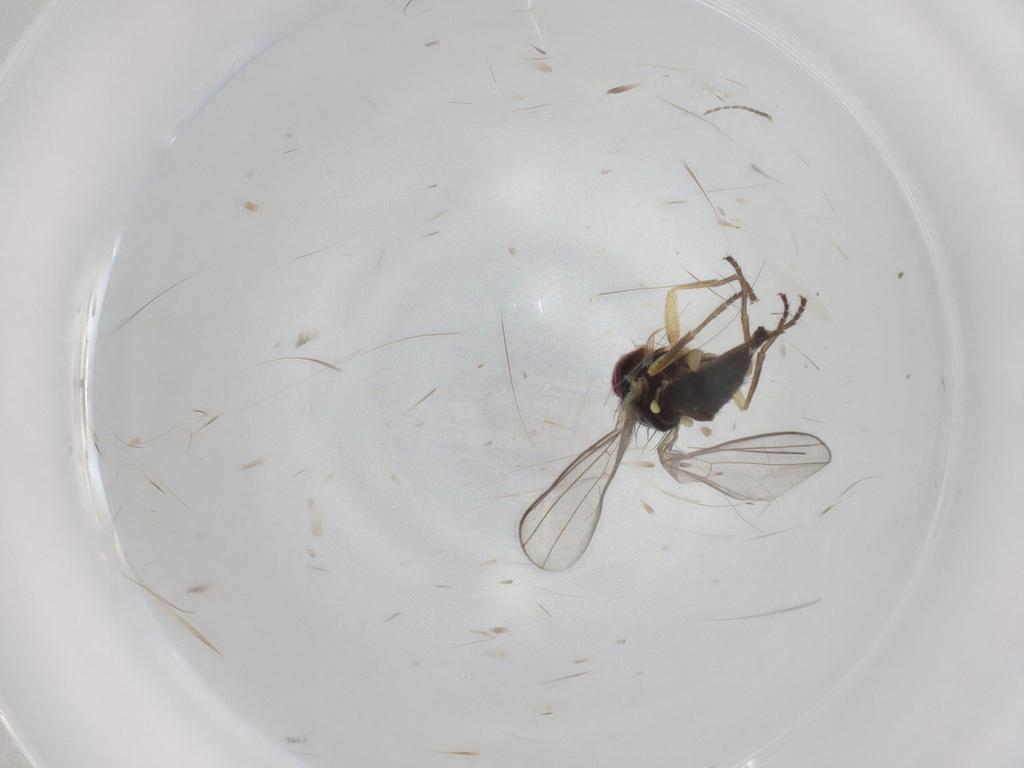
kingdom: Animalia
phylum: Arthropoda
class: Insecta
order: Diptera
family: Cecidomyiidae
